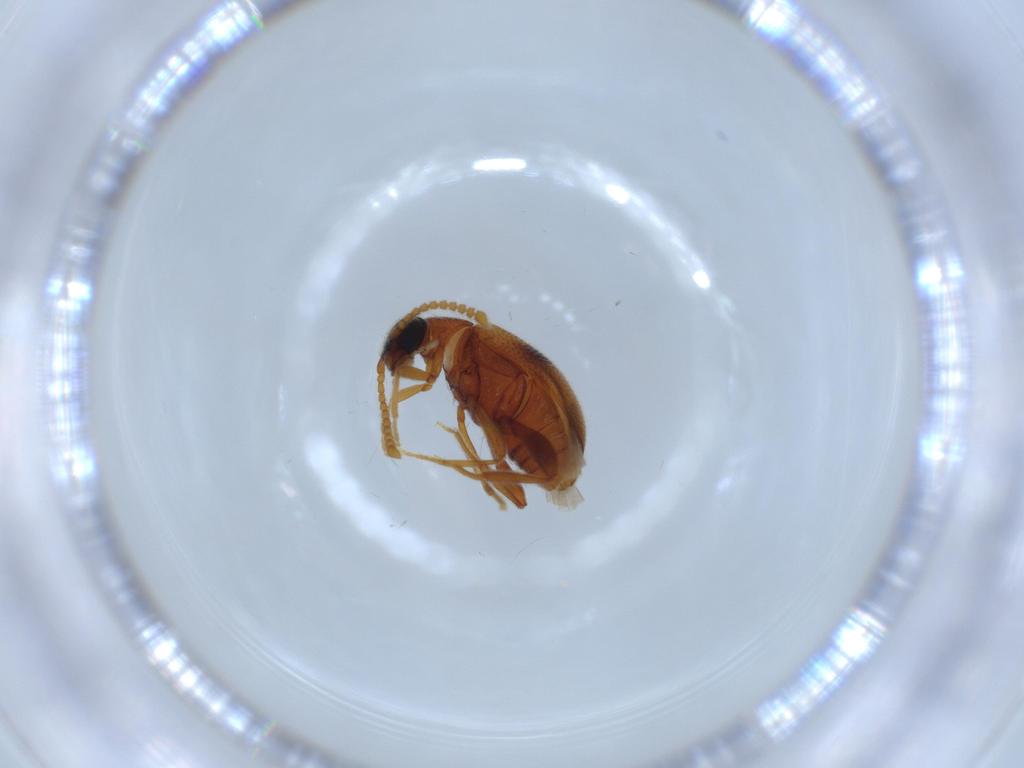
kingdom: Animalia
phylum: Arthropoda
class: Insecta
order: Coleoptera
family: Aderidae
